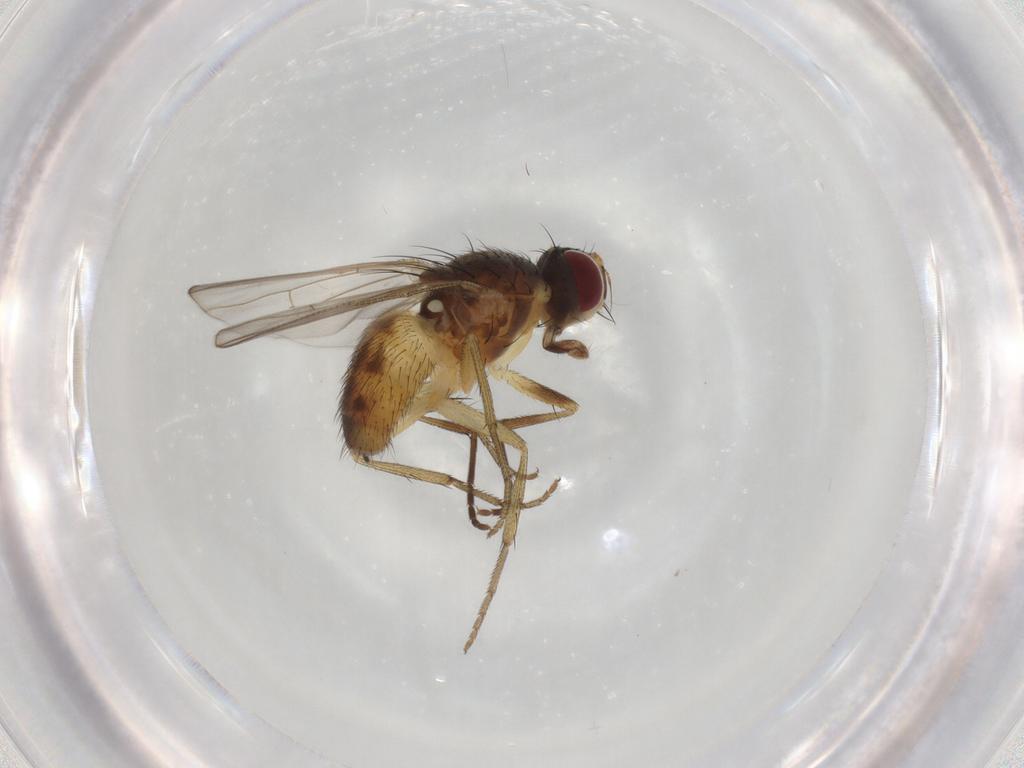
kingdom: Animalia
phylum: Arthropoda
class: Insecta
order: Diptera
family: Muscidae
